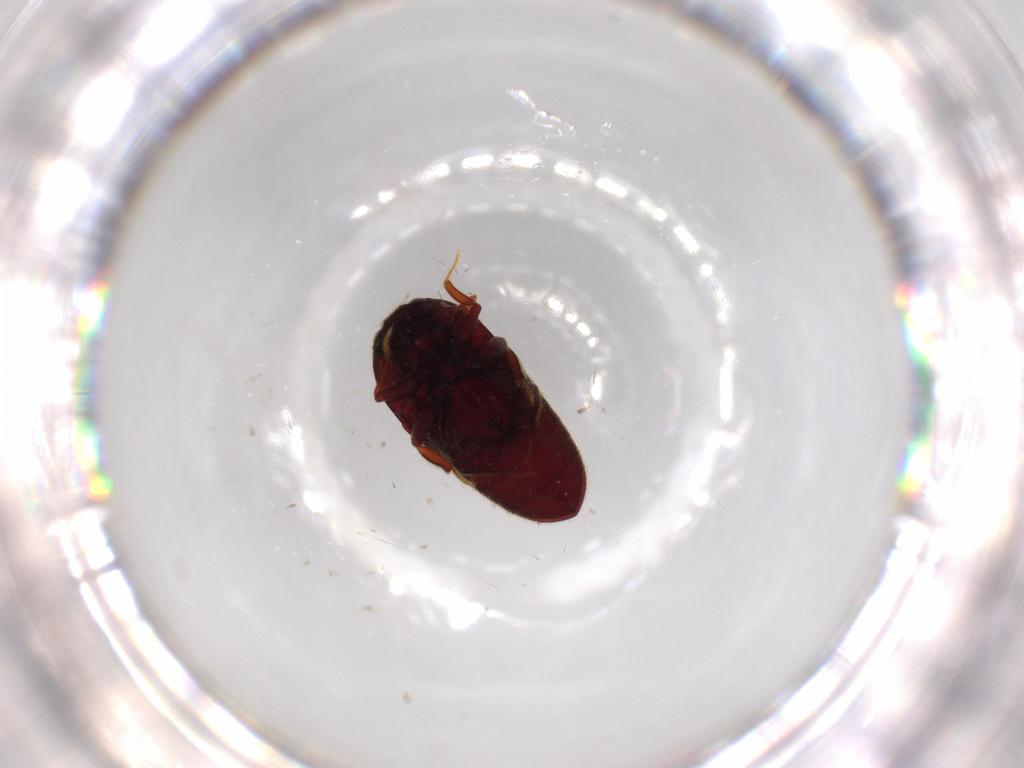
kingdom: Animalia
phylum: Arthropoda
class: Insecta
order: Coleoptera
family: Throscidae
